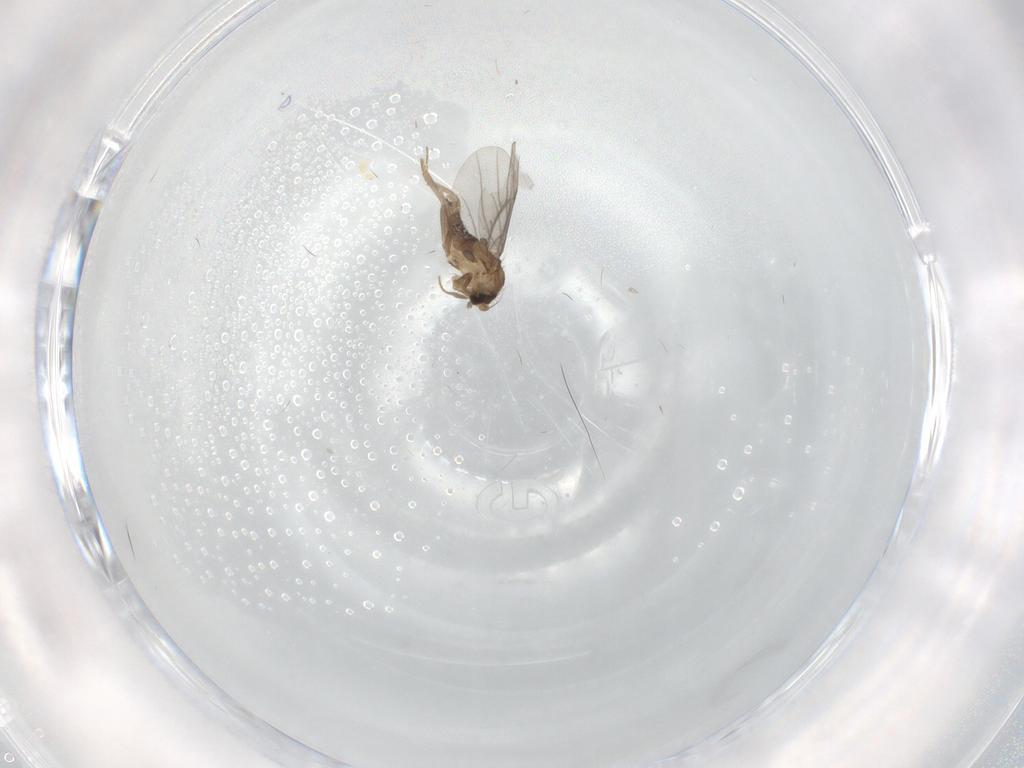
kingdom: Animalia
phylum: Arthropoda
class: Insecta
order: Diptera
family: Sphaeroceridae
